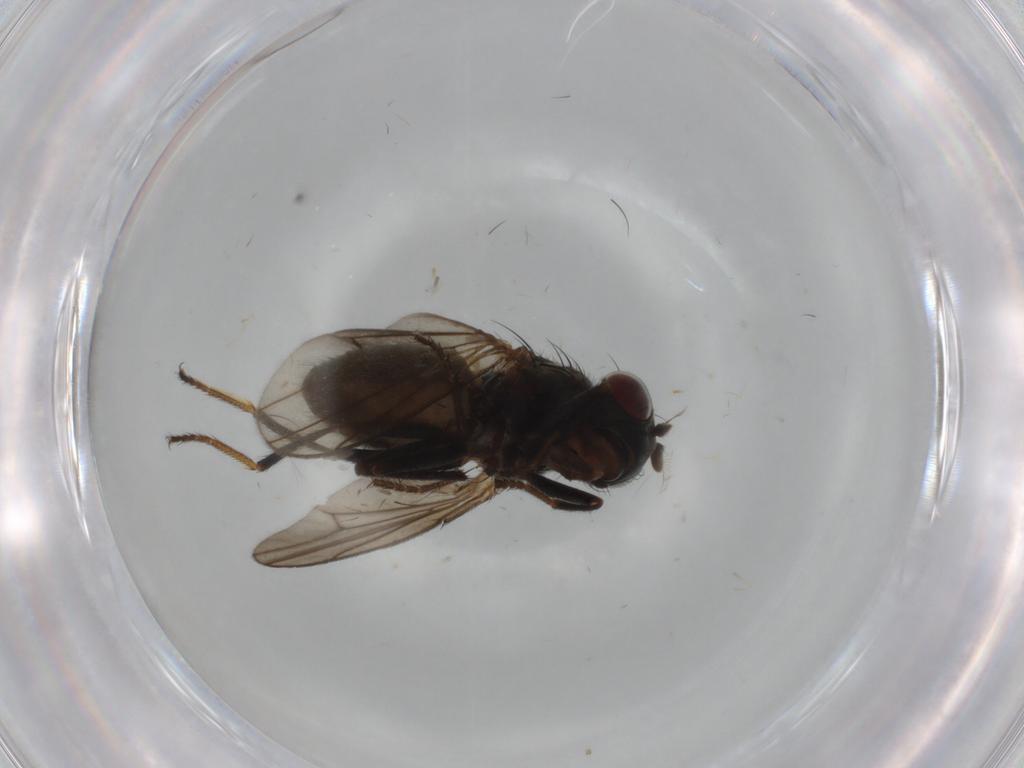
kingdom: Animalia
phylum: Arthropoda
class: Insecta
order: Diptera
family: Ephydridae
